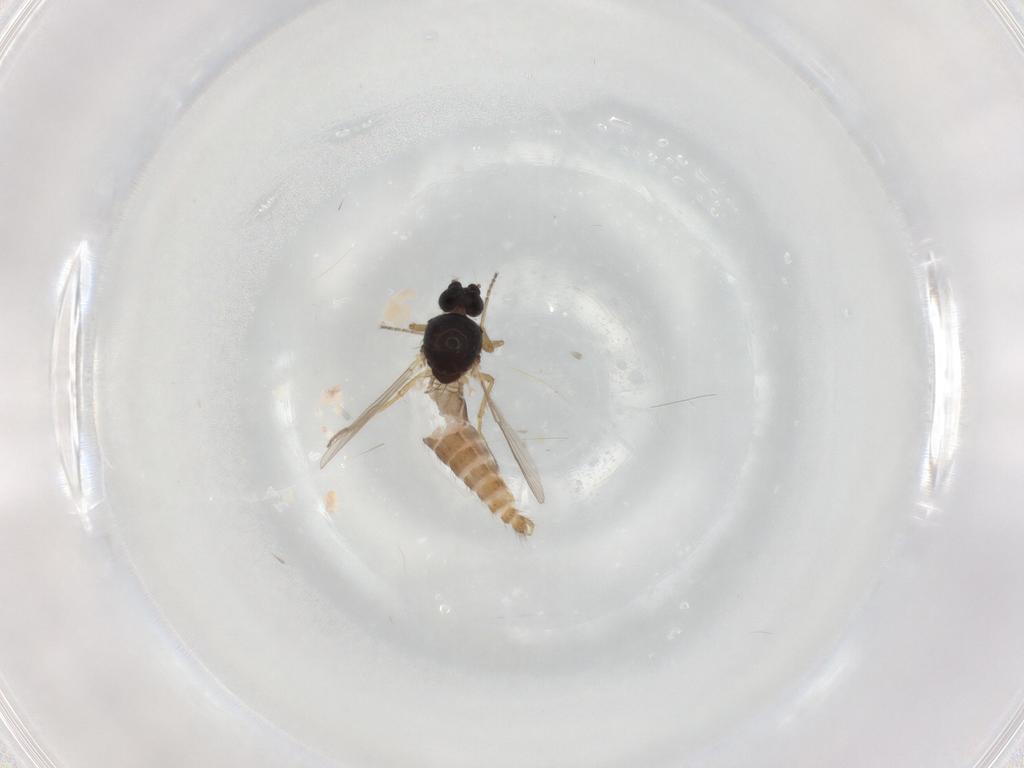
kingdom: Animalia
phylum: Arthropoda
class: Insecta
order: Diptera
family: Ceratopogonidae
